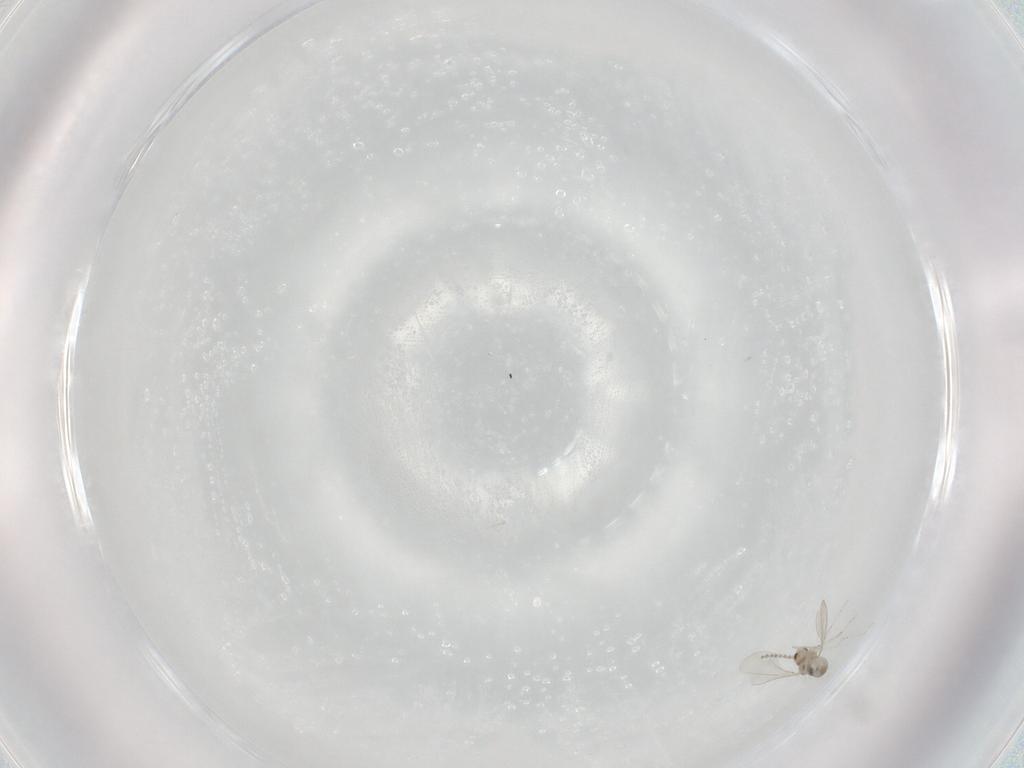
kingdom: Animalia
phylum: Arthropoda
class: Insecta
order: Diptera
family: Cecidomyiidae
